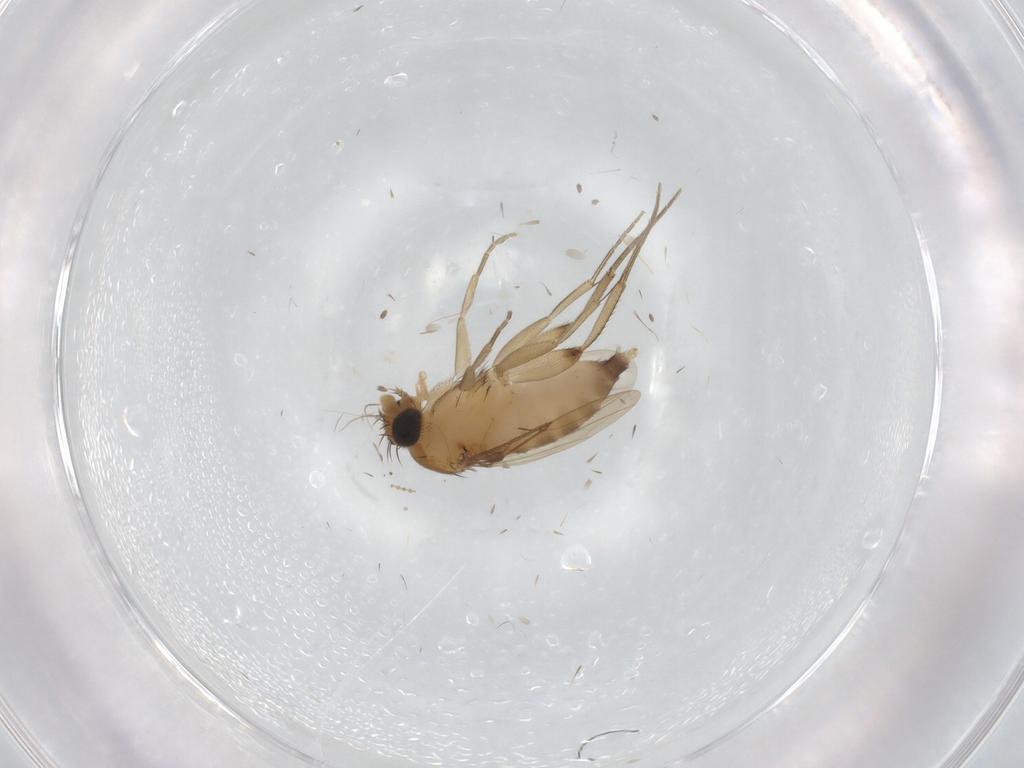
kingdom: Animalia
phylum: Arthropoda
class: Insecta
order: Diptera
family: Phoridae
